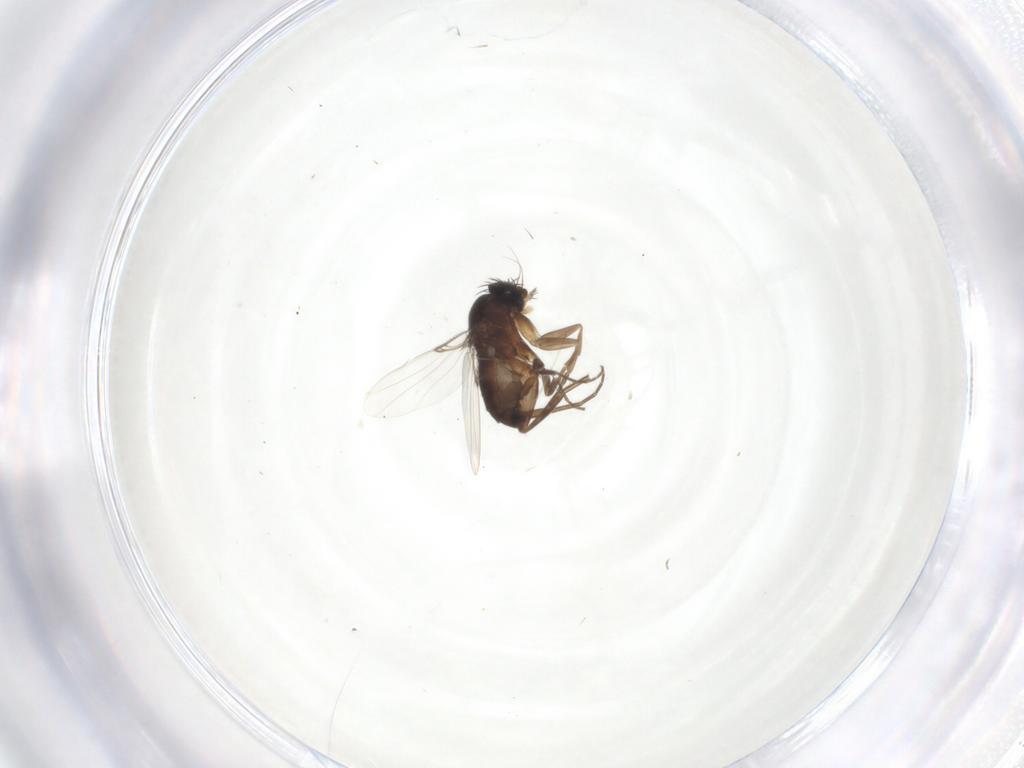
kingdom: Animalia
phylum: Arthropoda
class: Insecta
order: Diptera
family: Phoridae
